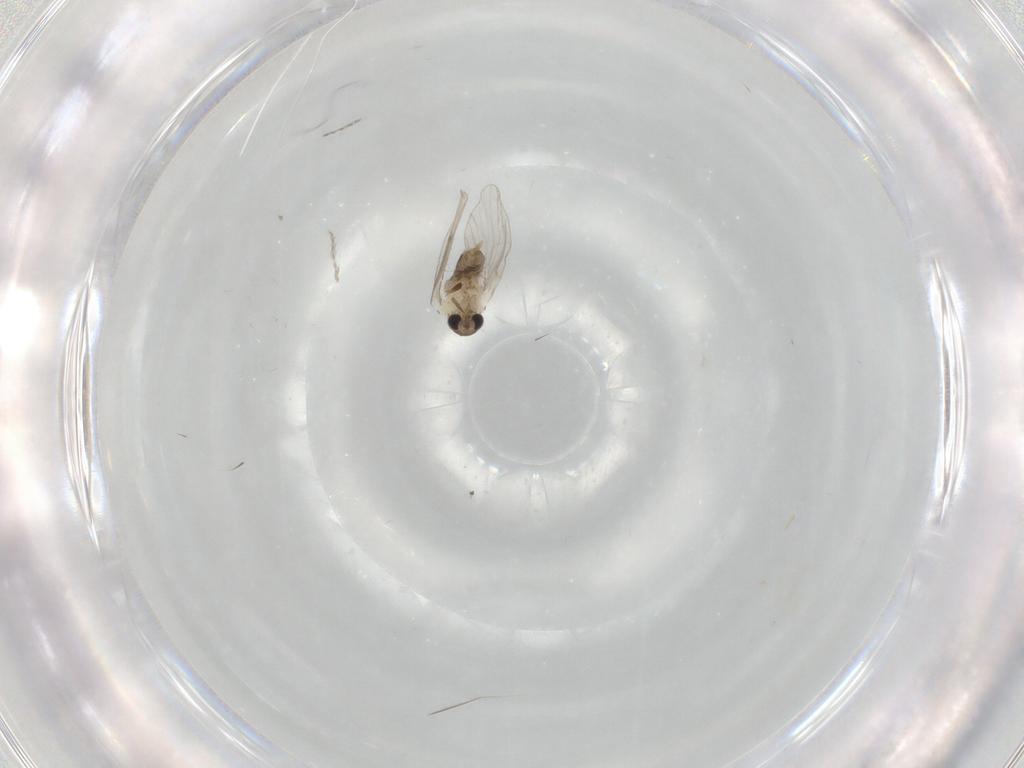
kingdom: Animalia
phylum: Arthropoda
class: Insecta
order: Diptera
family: Psychodidae
